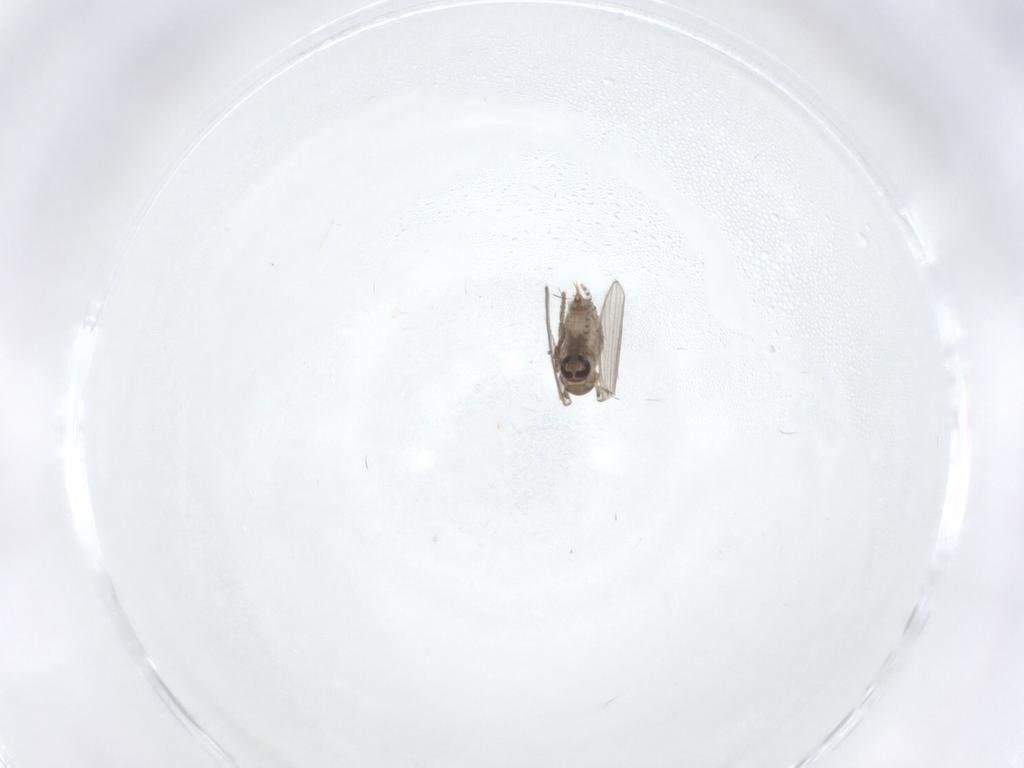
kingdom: Animalia
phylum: Arthropoda
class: Insecta
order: Diptera
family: Psychodidae
